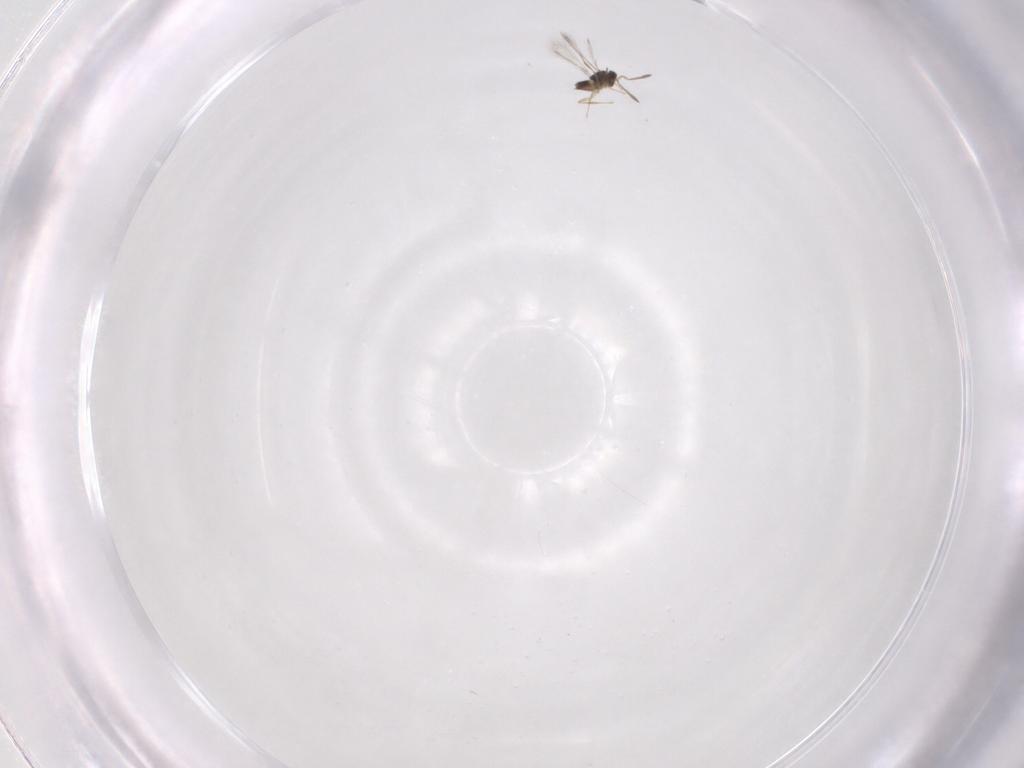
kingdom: Animalia
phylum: Arthropoda
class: Insecta
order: Hymenoptera
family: Mymaridae
